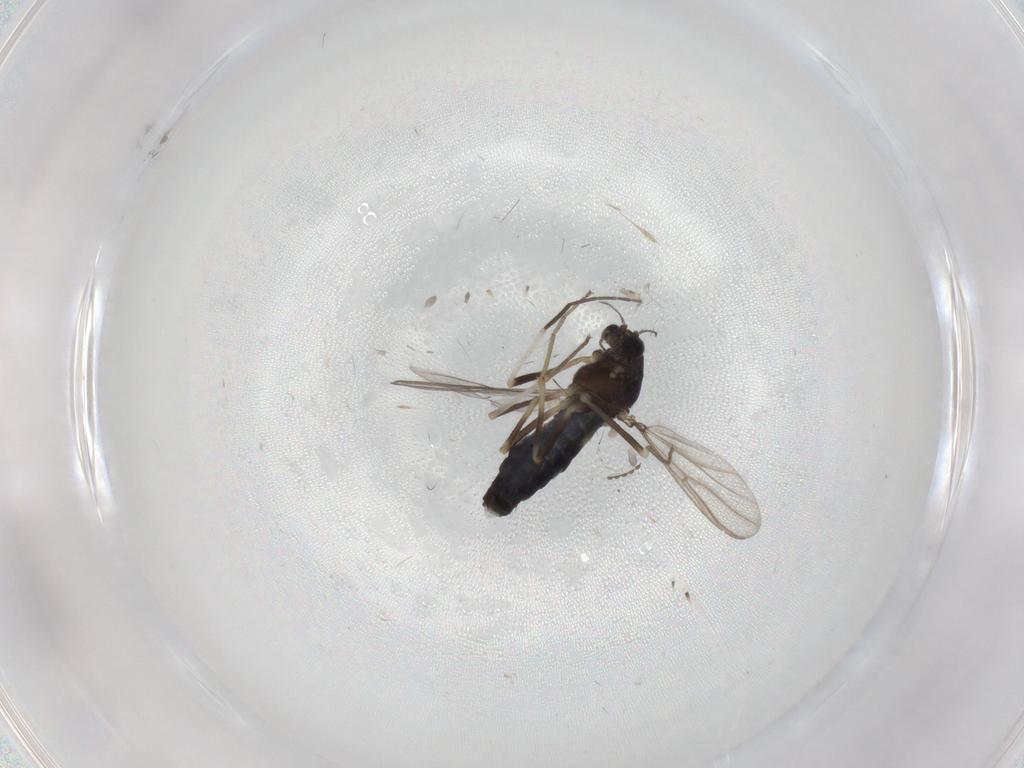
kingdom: Animalia
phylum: Arthropoda
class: Insecta
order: Diptera
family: Chironomidae
